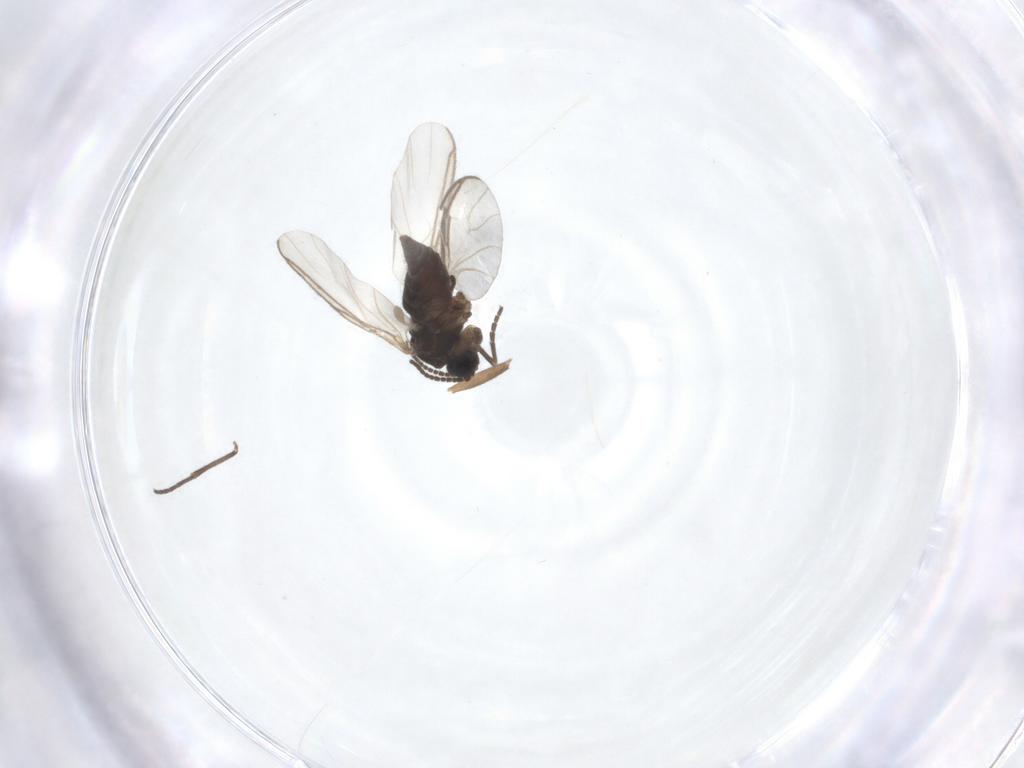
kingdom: Animalia
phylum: Arthropoda
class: Insecta
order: Diptera
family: Sciaridae
